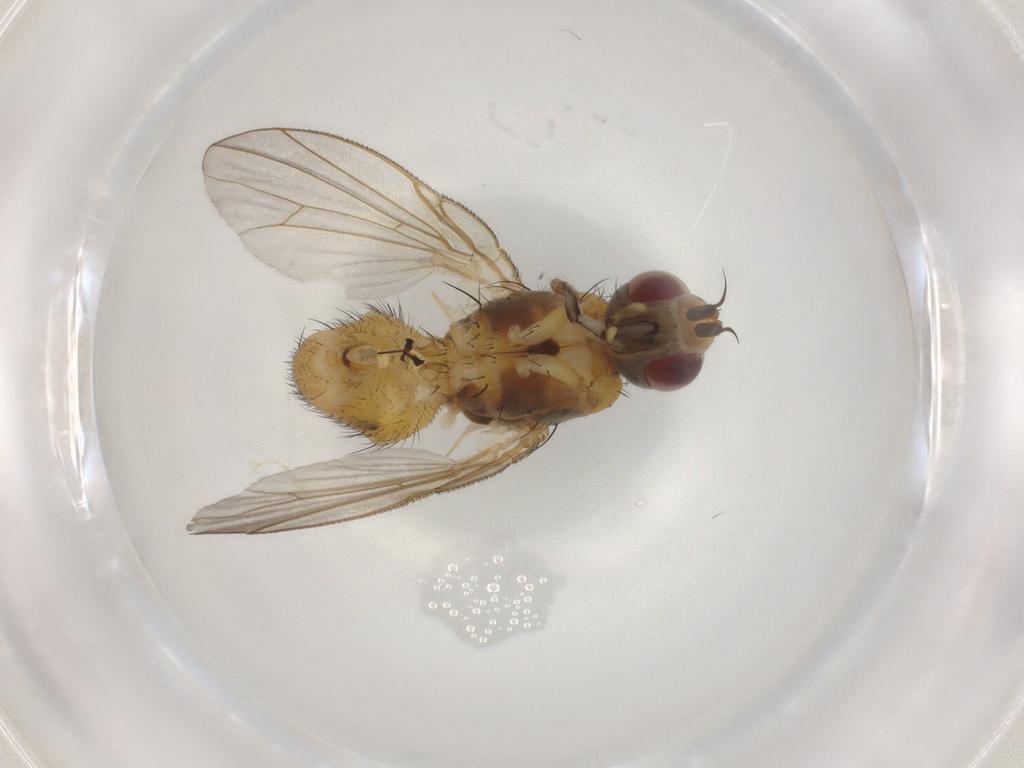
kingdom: Animalia
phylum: Arthropoda
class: Insecta
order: Diptera
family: Muscidae
